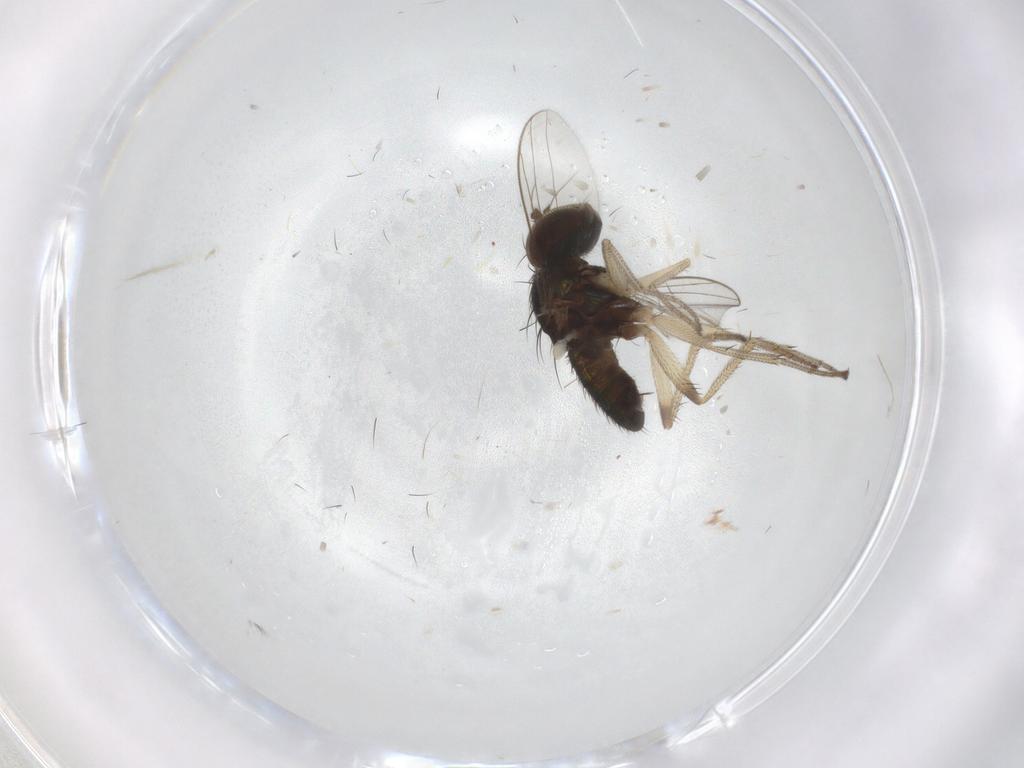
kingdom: Animalia
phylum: Arthropoda
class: Insecta
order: Diptera
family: Dolichopodidae
